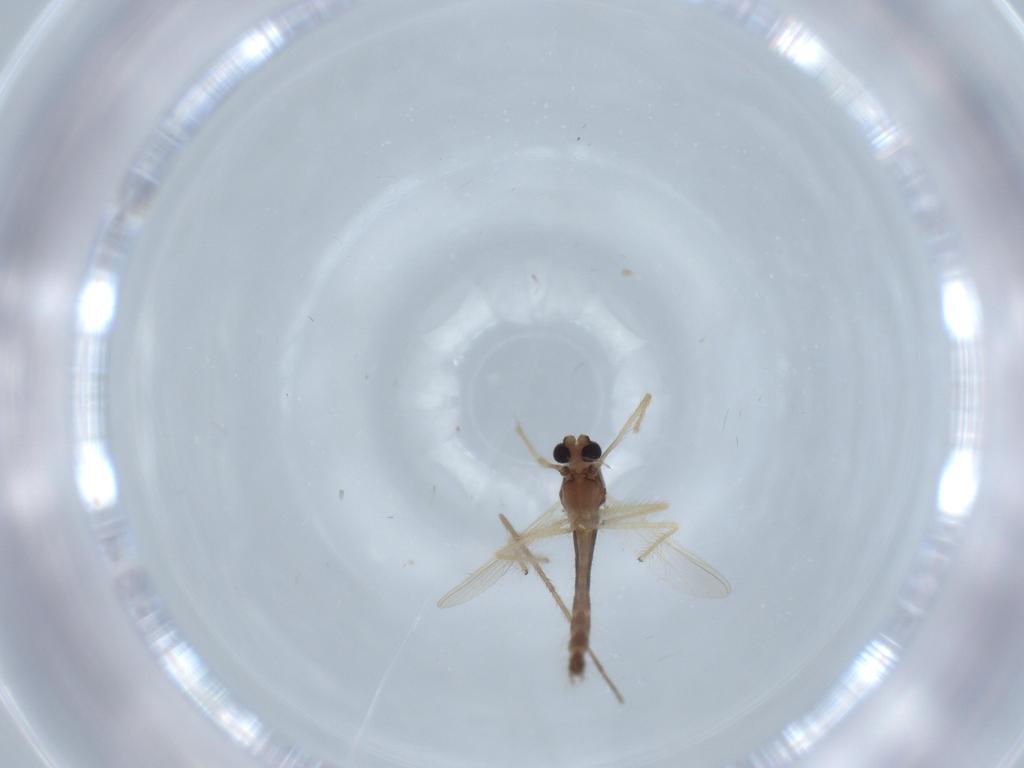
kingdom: Animalia
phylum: Arthropoda
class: Insecta
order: Diptera
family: Chironomidae
